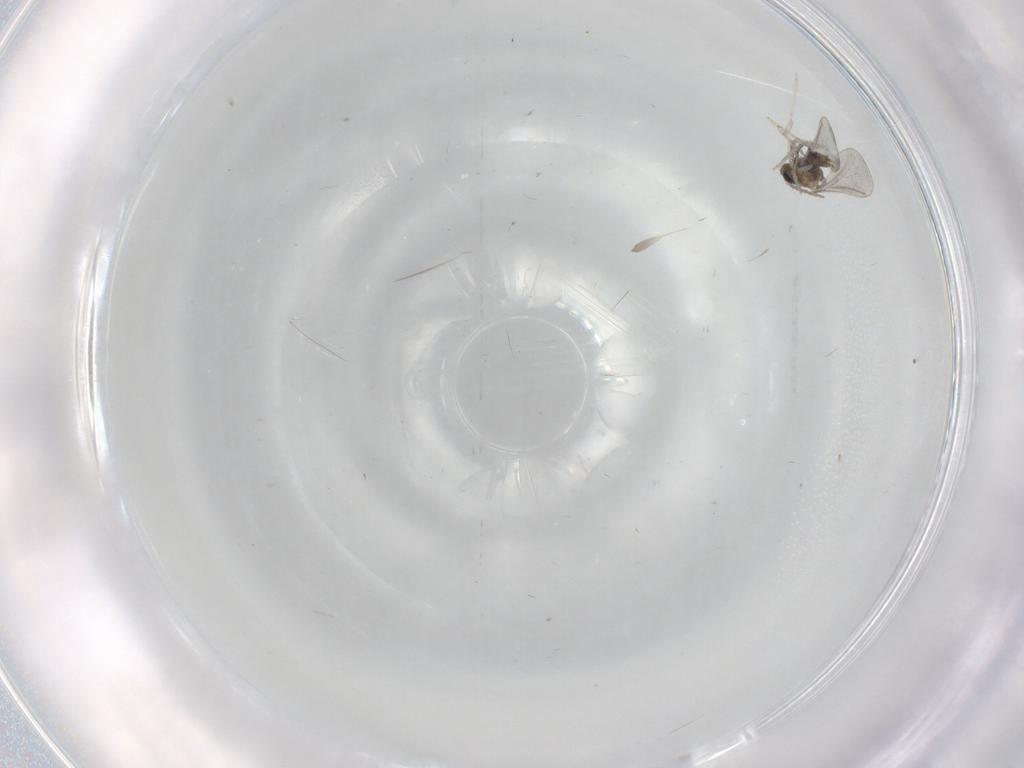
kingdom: Animalia
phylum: Arthropoda
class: Insecta
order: Diptera
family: Cecidomyiidae
